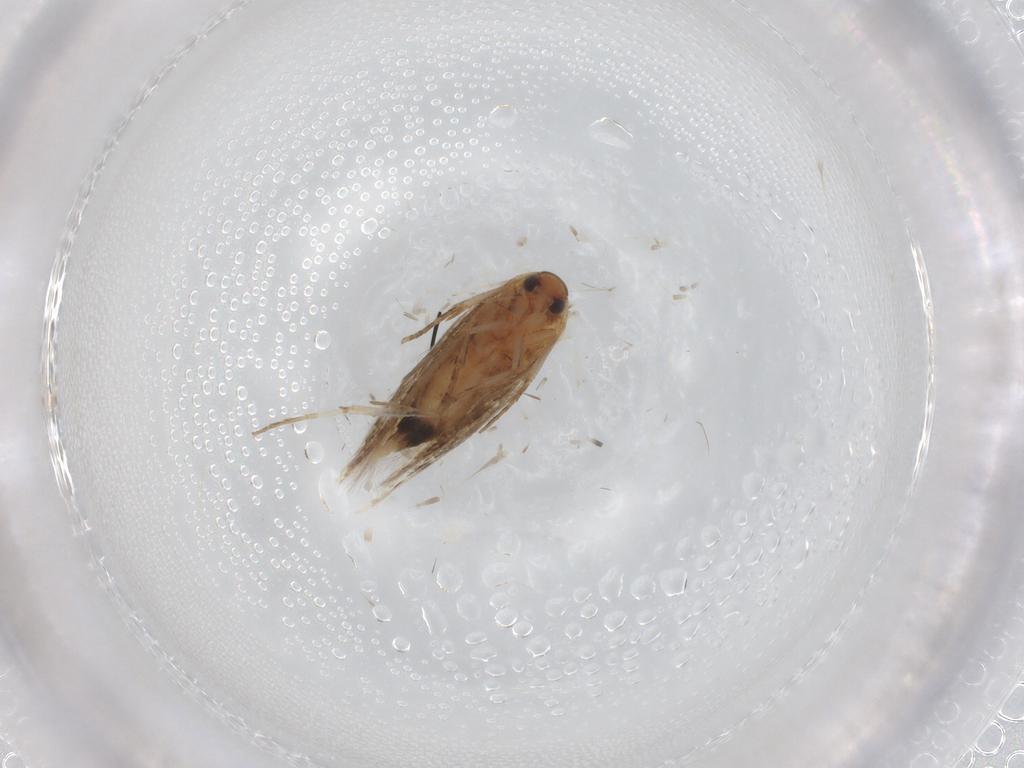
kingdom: Animalia
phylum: Arthropoda
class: Insecta
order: Lepidoptera
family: Cosmopterigidae
